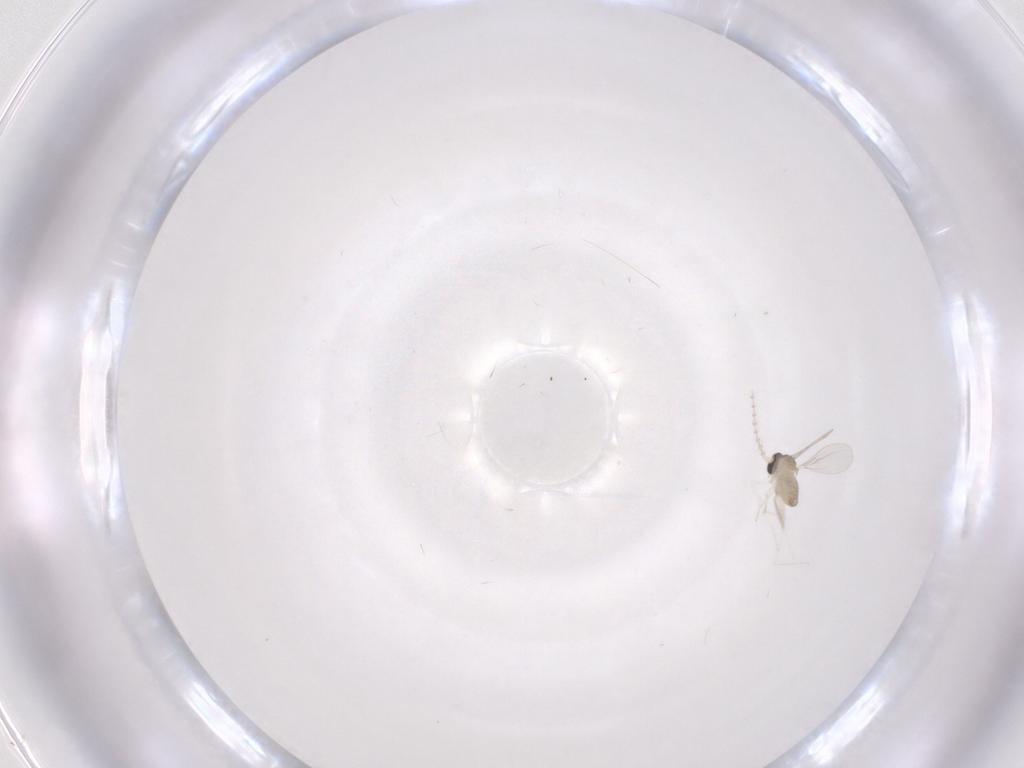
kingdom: Animalia
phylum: Arthropoda
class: Insecta
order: Diptera
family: Cecidomyiidae
